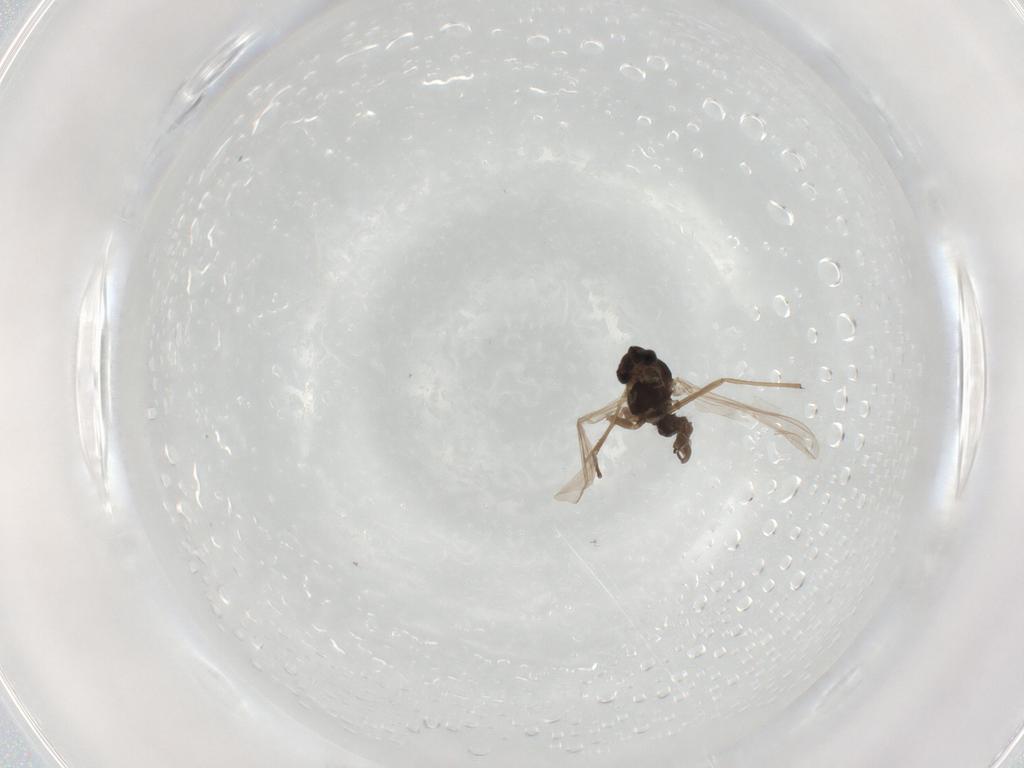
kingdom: Animalia
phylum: Arthropoda
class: Insecta
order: Diptera
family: Chironomidae
